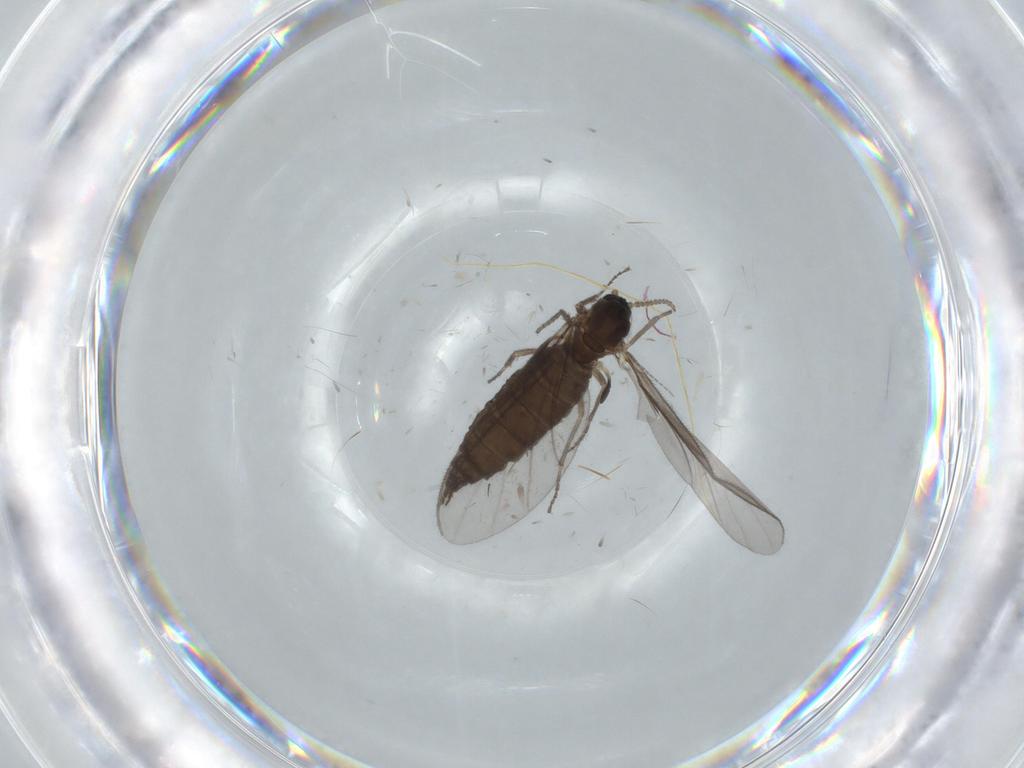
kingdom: Animalia
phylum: Arthropoda
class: Insecta
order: Diptera
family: Sciaridae
